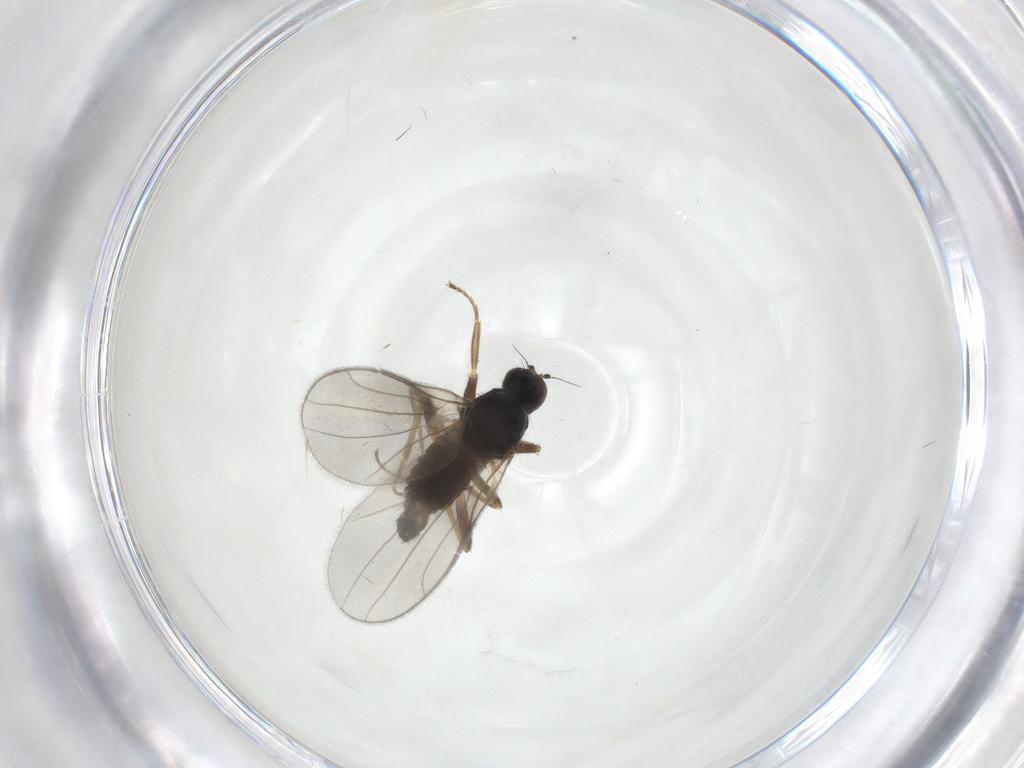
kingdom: Animalia
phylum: Arthropoda
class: Insecta
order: Diptera
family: Hybotidae
